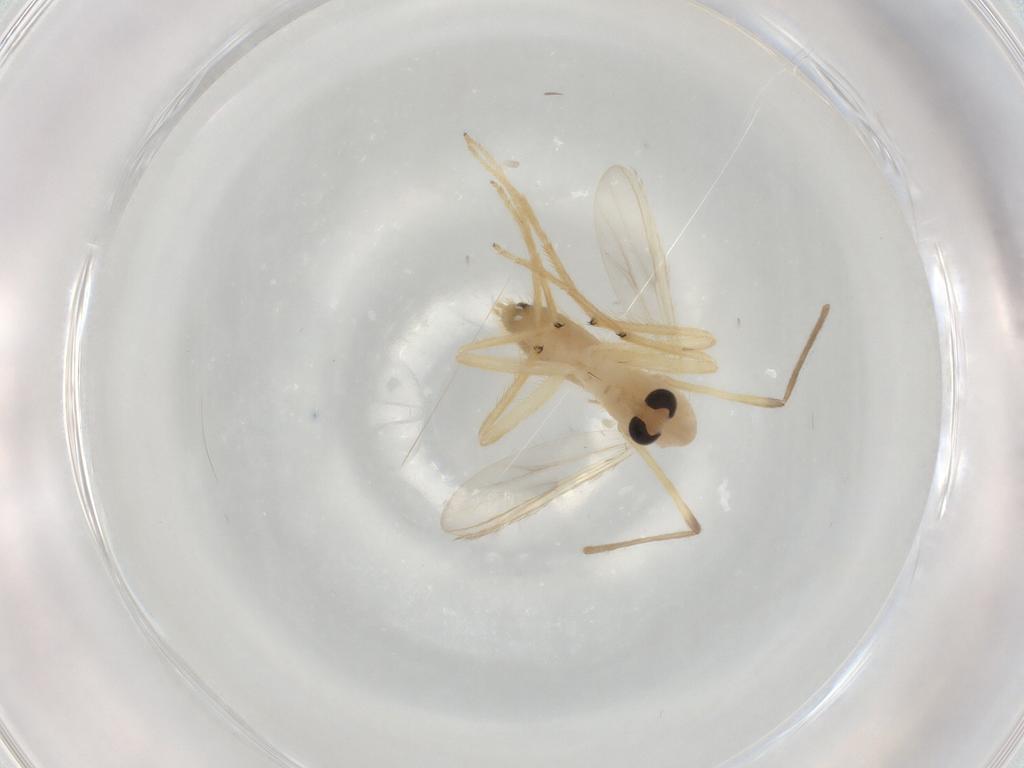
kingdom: Animalia
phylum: Arthropoda
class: Insecta
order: Diptera
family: Chironomidae
